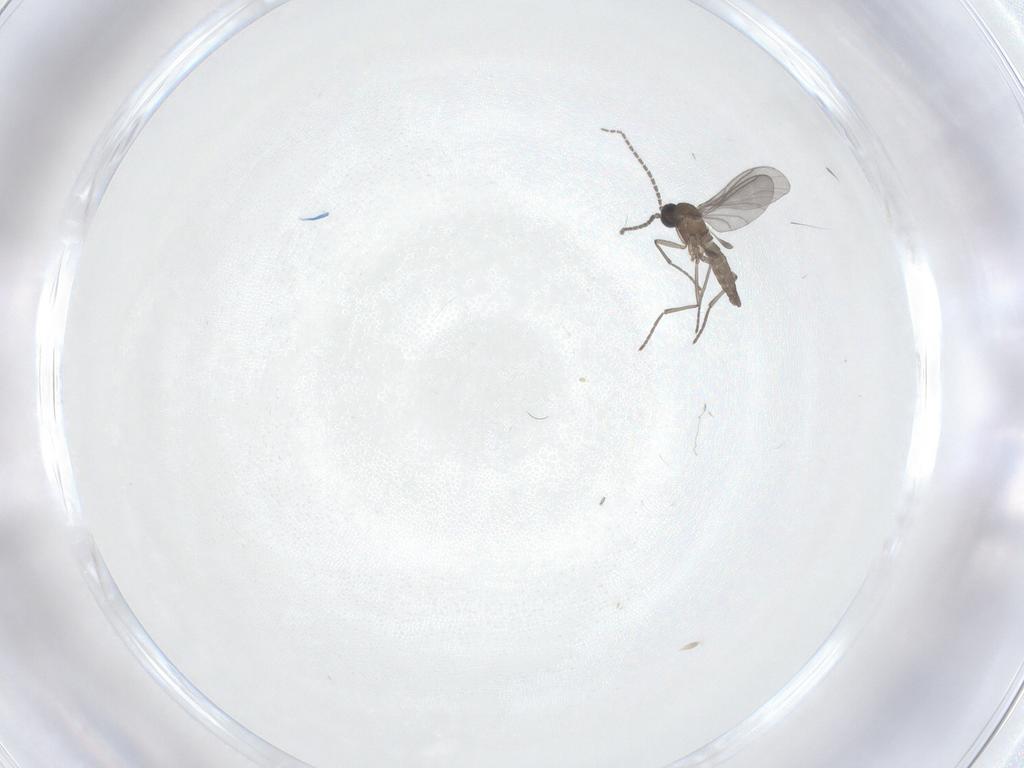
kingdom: Animalia
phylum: Arthropoda
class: Insecta
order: Diptera
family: Sciaridae
